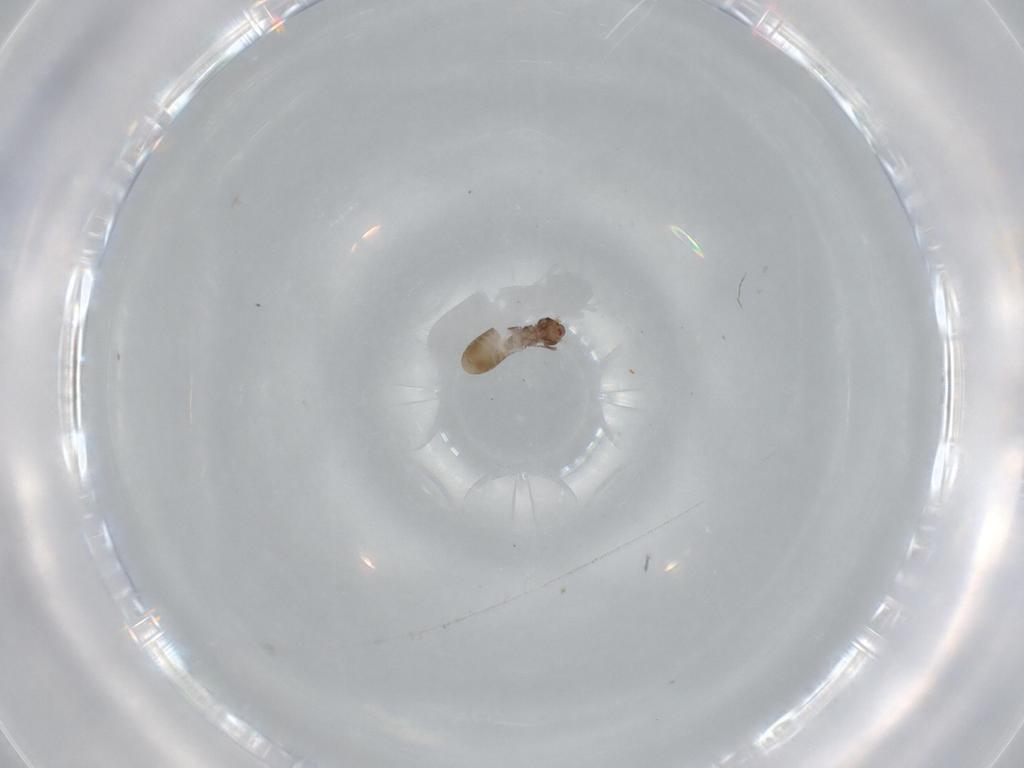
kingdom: Animalia
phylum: Arthropoda
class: Insecta
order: Psocodea
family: Liposcelididae
